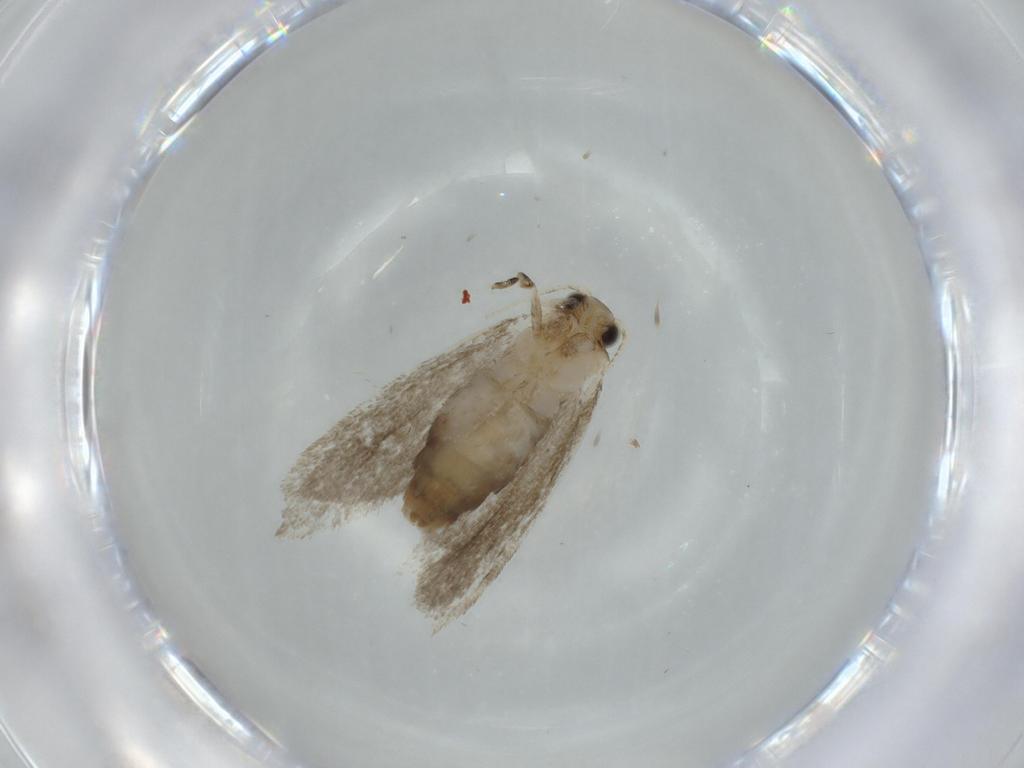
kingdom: Animalia
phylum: Arthropoda
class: Insecta
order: Lepidoptera
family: Tineidae
